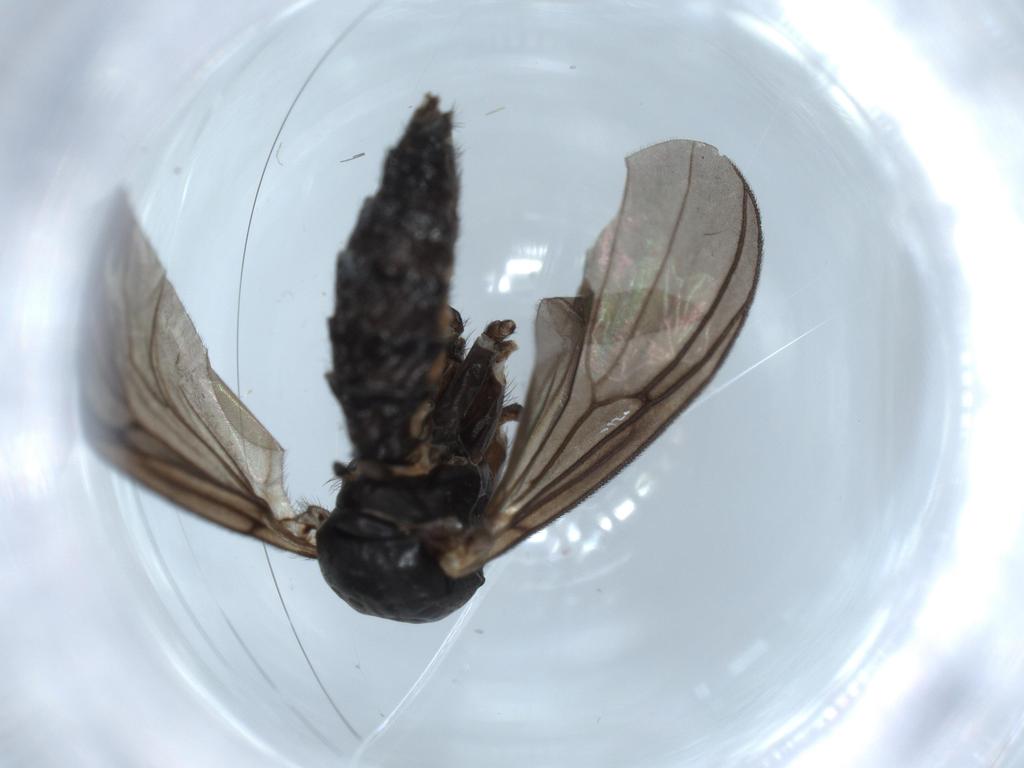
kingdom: Animalia
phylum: Arthropoda
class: Insecta
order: Diptera
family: Mycetophilidae
